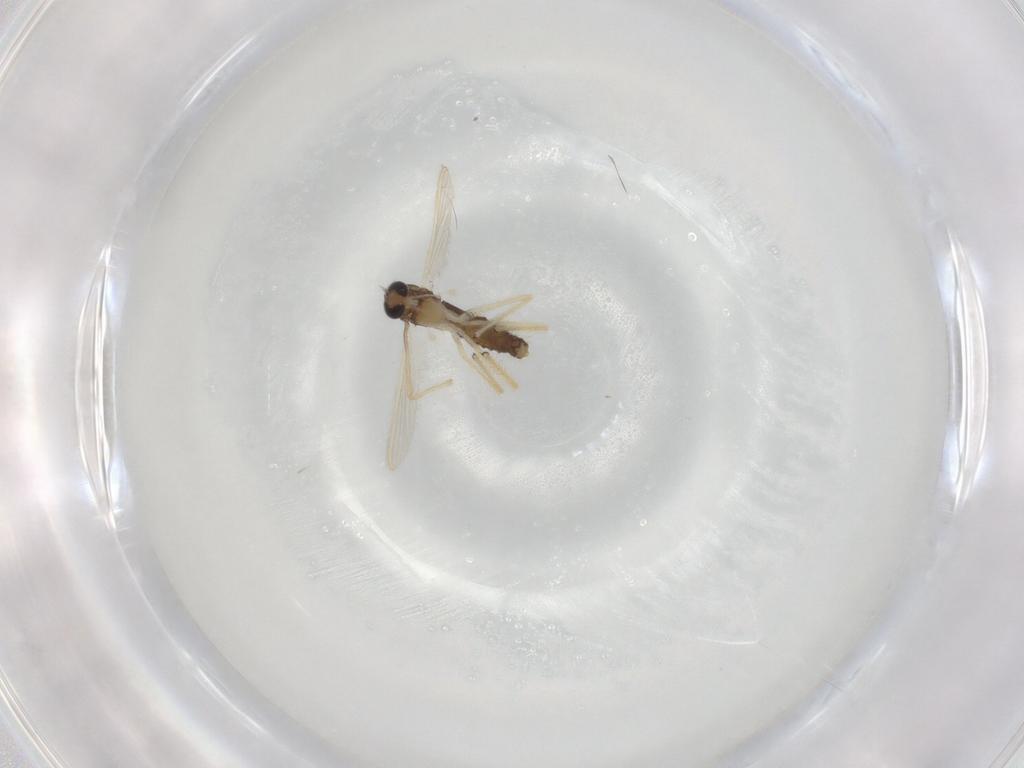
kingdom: Animalia
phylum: Arthropoda
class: Insecta
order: Diptera
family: Chironomidae
